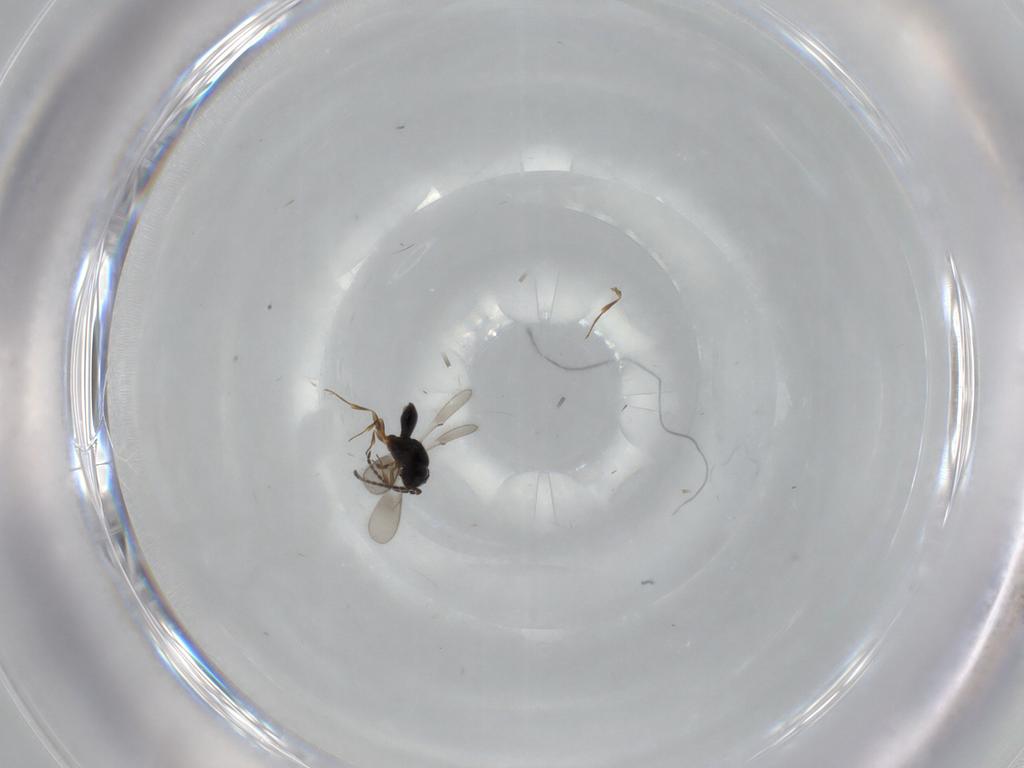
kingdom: Animalia
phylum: Arthropoda
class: Insecta
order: Hymenoptera
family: Scelionidae
